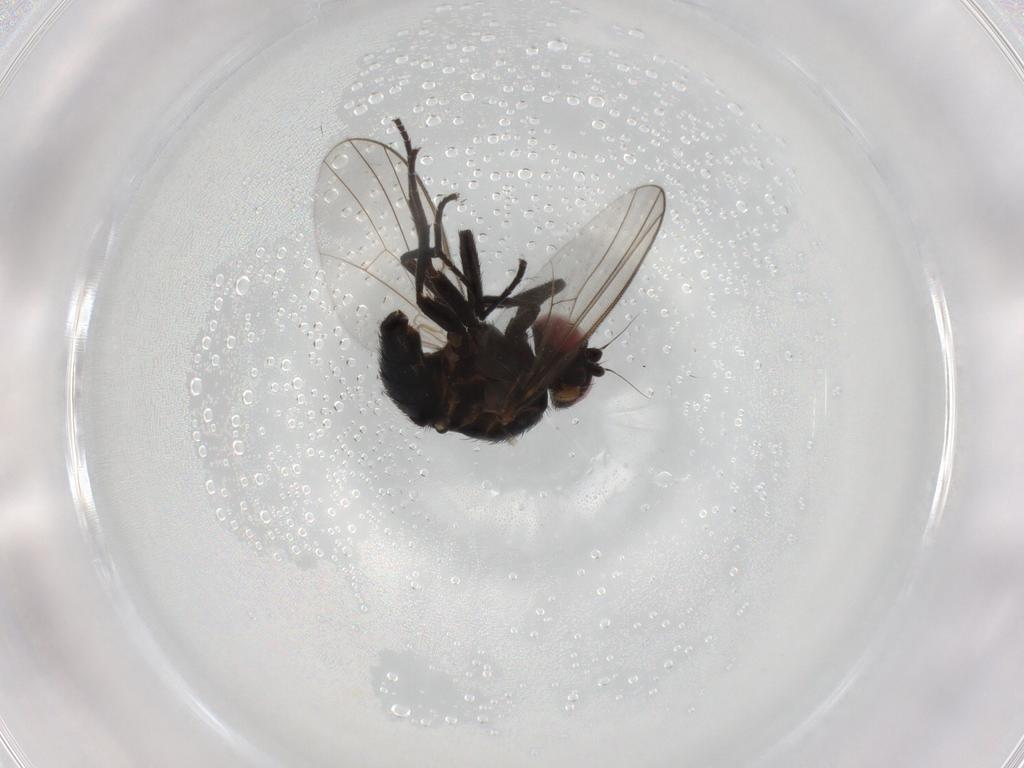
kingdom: Animalia
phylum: Arthropoda
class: Insecta
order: Diptera
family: Agromyzidae
